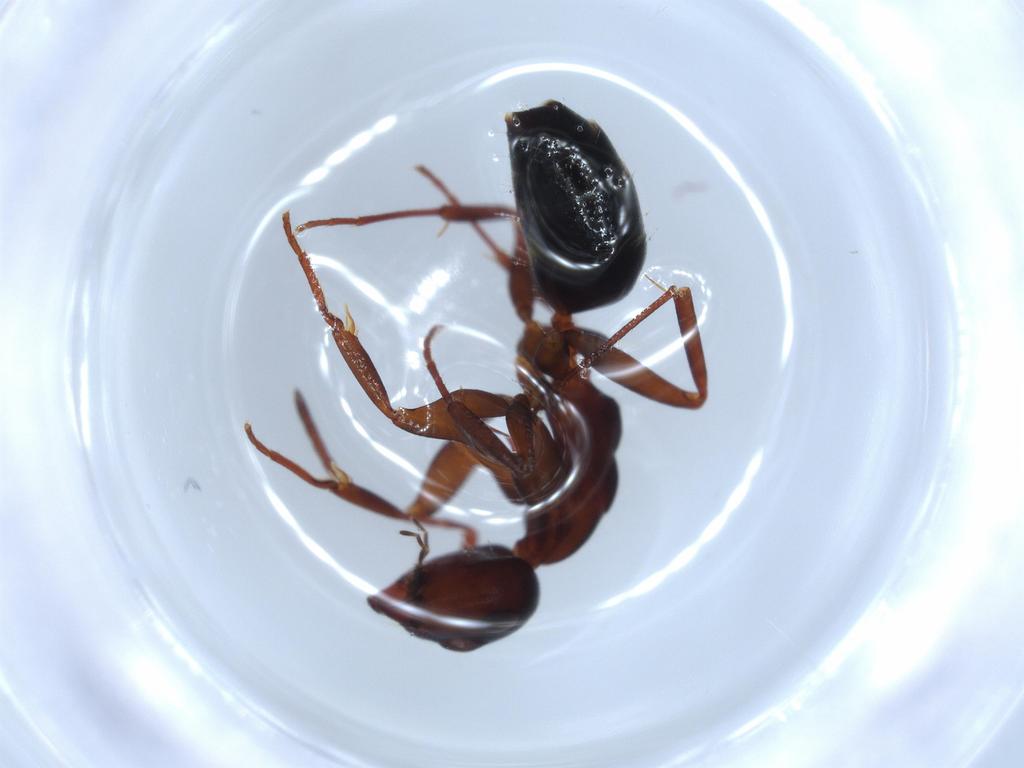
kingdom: Animalia
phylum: Arthropoda
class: Insecta
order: Hymenoptera
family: Formicidae
